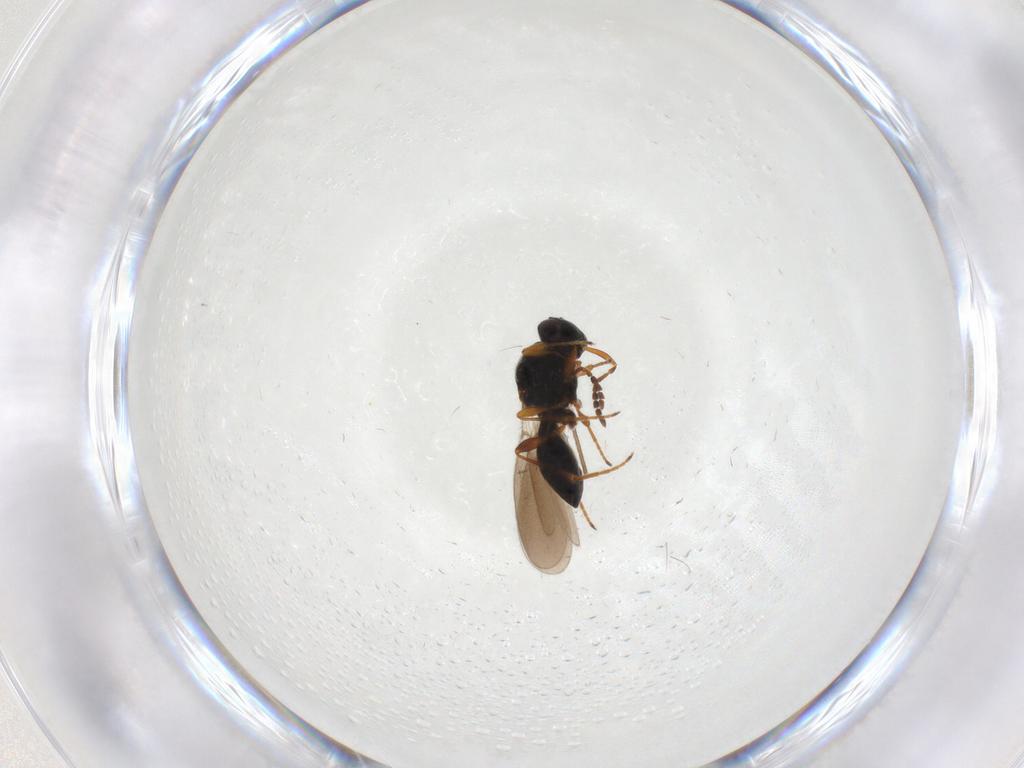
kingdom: Animalia
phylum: Arthropoda
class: Insecta
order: Hymenoptera
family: Platygastridae
